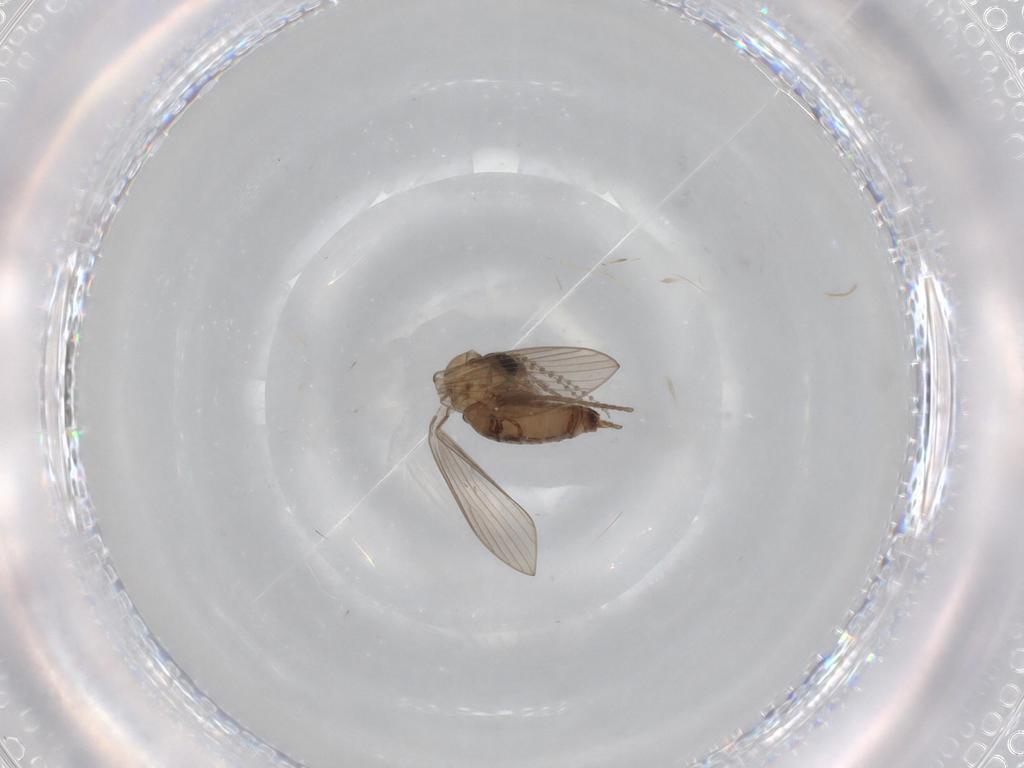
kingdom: Animalia
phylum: Arthropoda
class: Insecta
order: Diptera
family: Psychodidae
